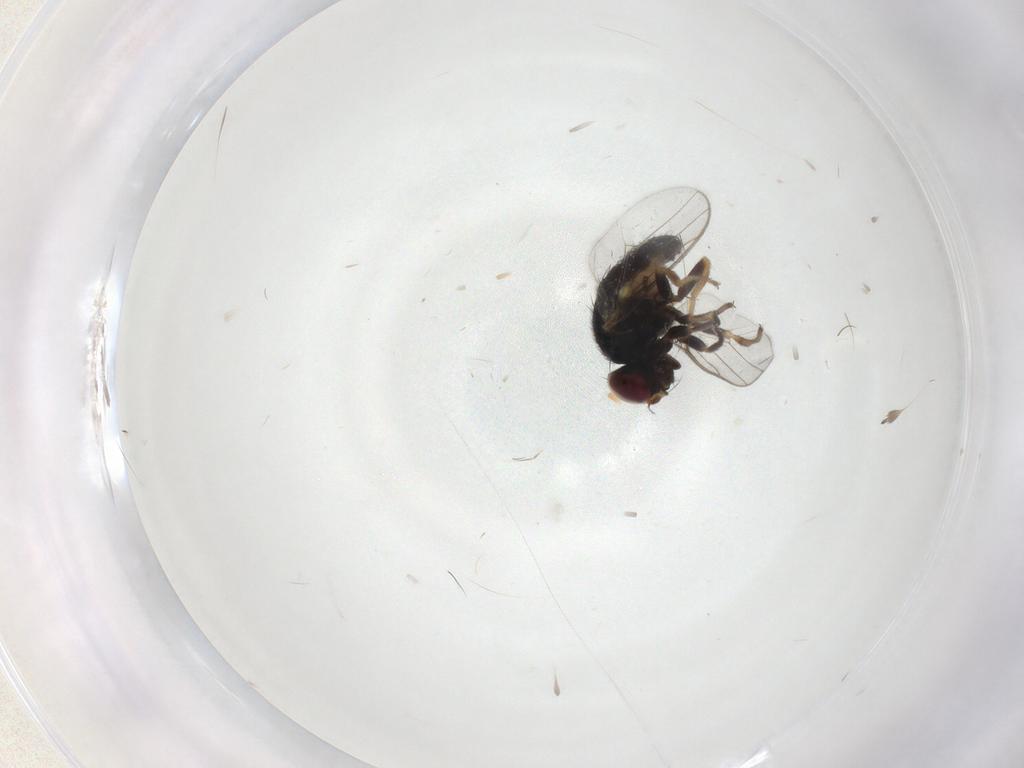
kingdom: Animalia
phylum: Arthropoda
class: Insecta
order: Diptera
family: Chloropidae
